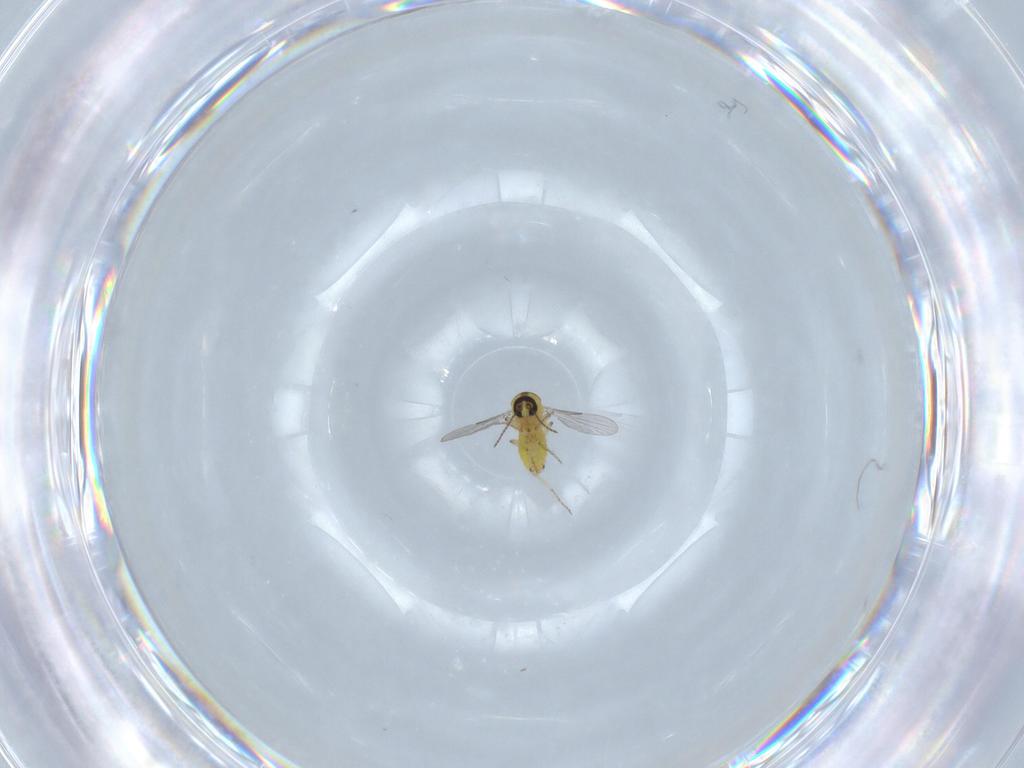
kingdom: Animalia
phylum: Arthropoda
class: Insecta
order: Diptera
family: Ceratopogonidae
